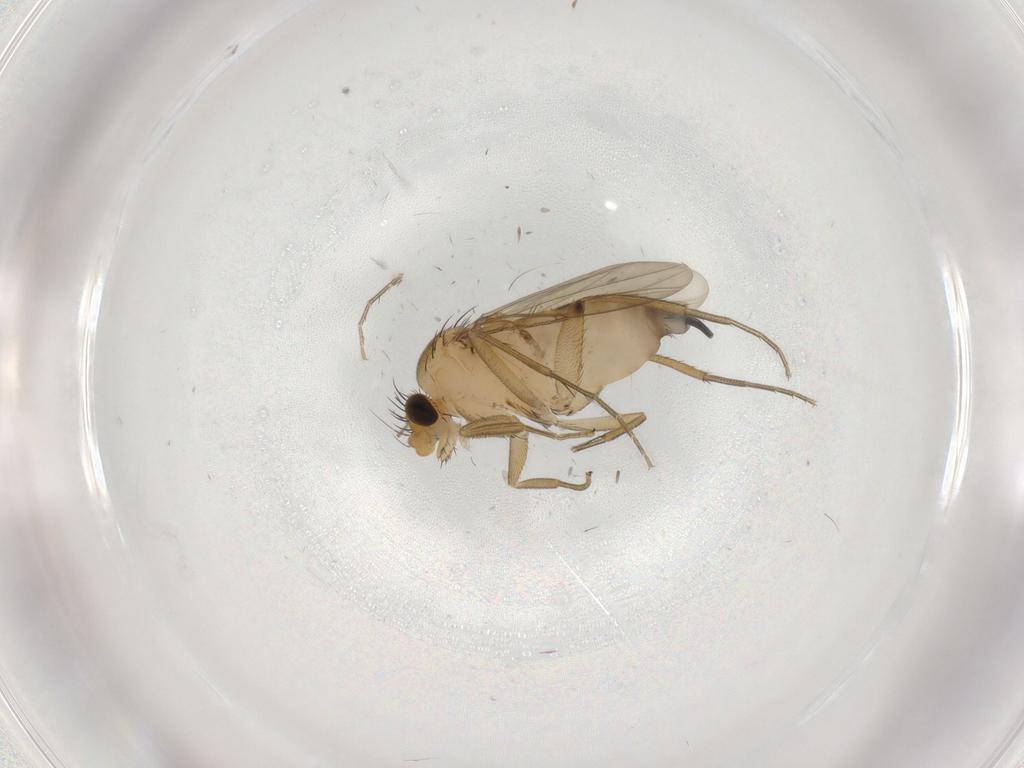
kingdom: Animalia
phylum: Arthropoda
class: Insecta
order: Diptera
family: Phoridae
